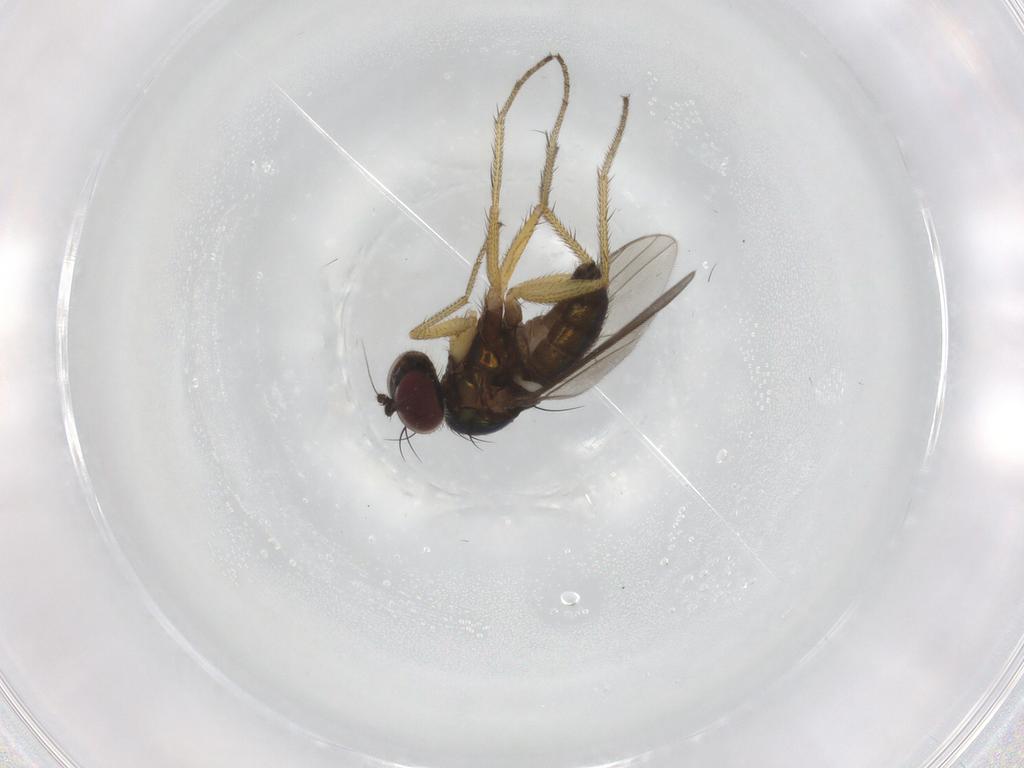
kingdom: Animalia
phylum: Arthropoda
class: Insecta
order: Diptera
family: Dolichopodidae
